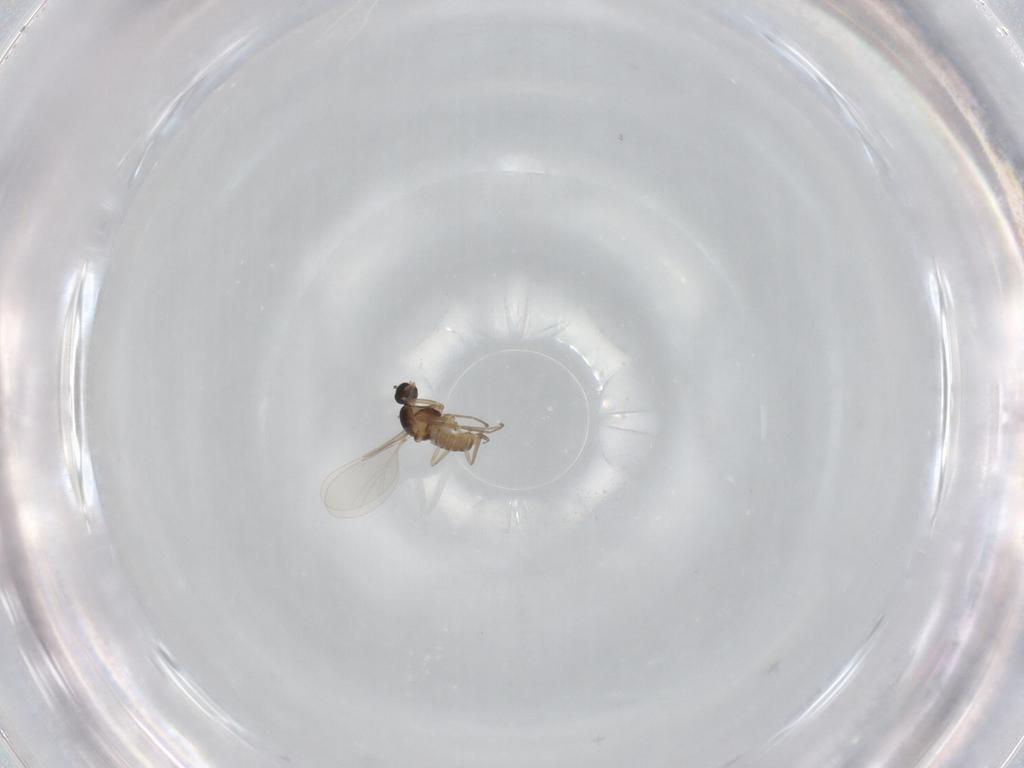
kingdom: Animalia
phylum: Arthropoda
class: Insecta
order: Diptera
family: Cecidomyiidae
